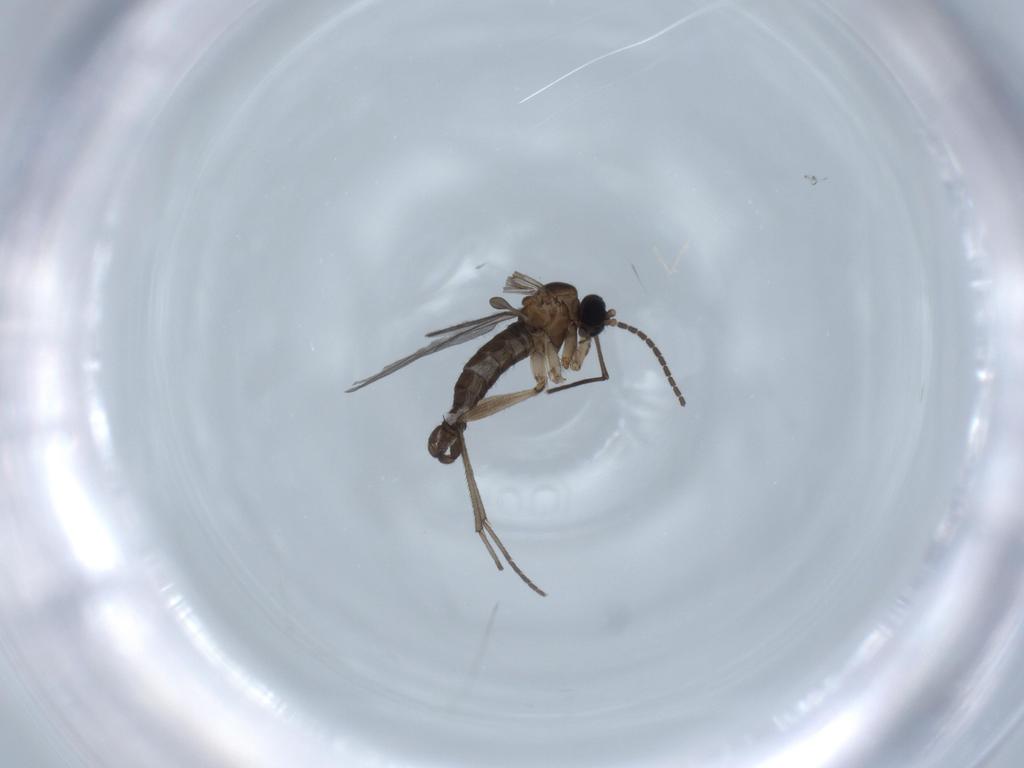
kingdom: Animalia
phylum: Arthropoda
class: Insecta
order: Diptera
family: Sciaridae
